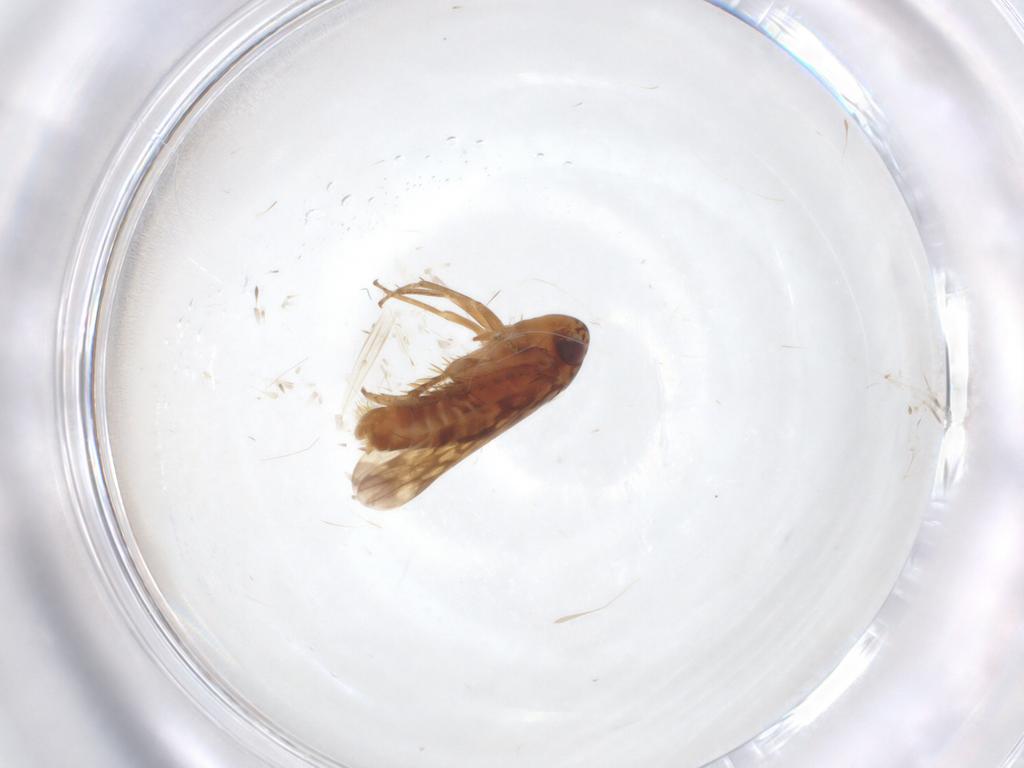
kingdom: Animalia
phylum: Arthropoda
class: Insecta
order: Hemiptera
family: Cicadellidae
